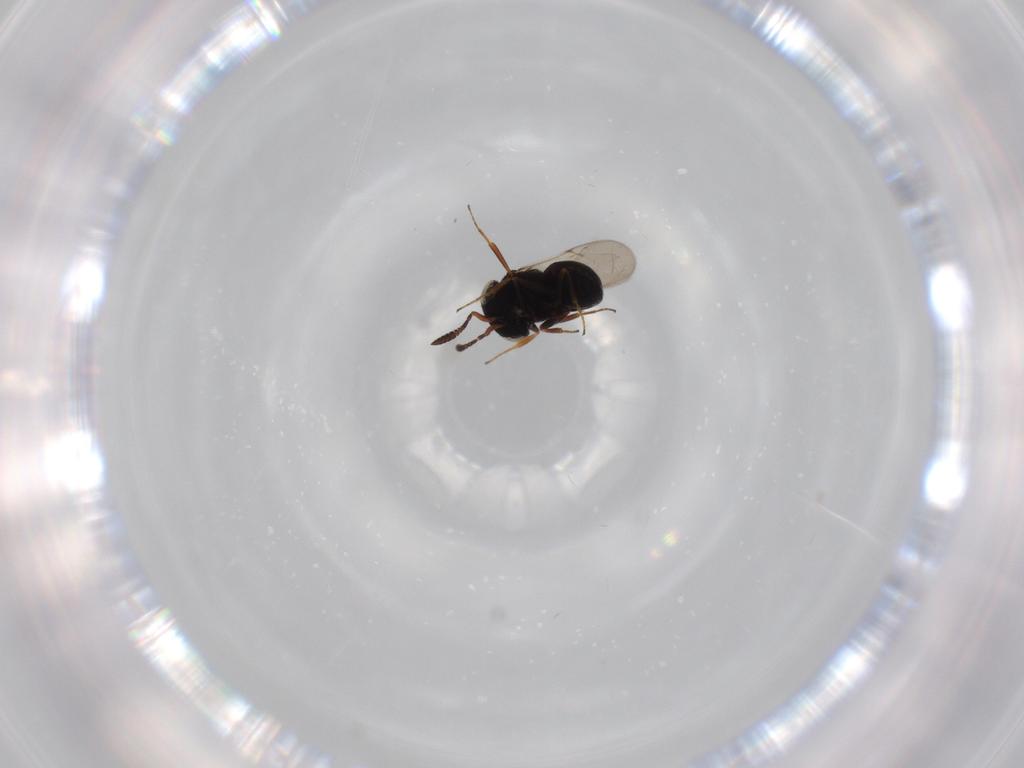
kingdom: Animalia
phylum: Arthropoda
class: Insecta
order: Hymenoptera
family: Scelionidae
